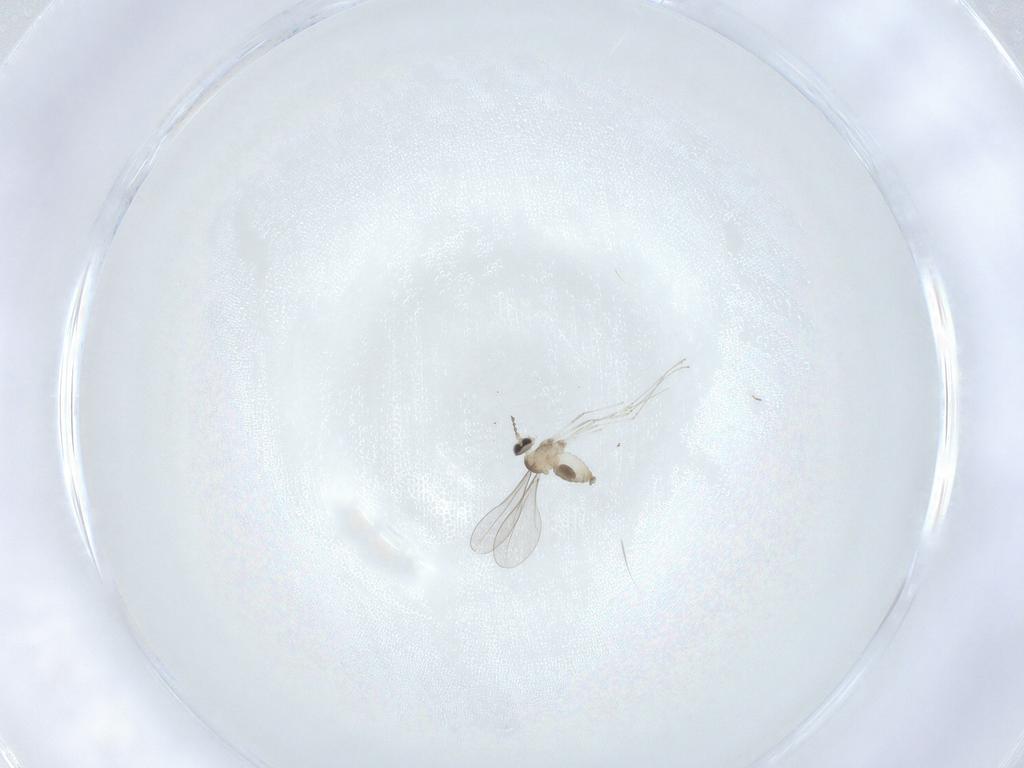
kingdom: Animalia
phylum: Arthropoda
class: Insecta
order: Diptera
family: Cecidomyiidae
